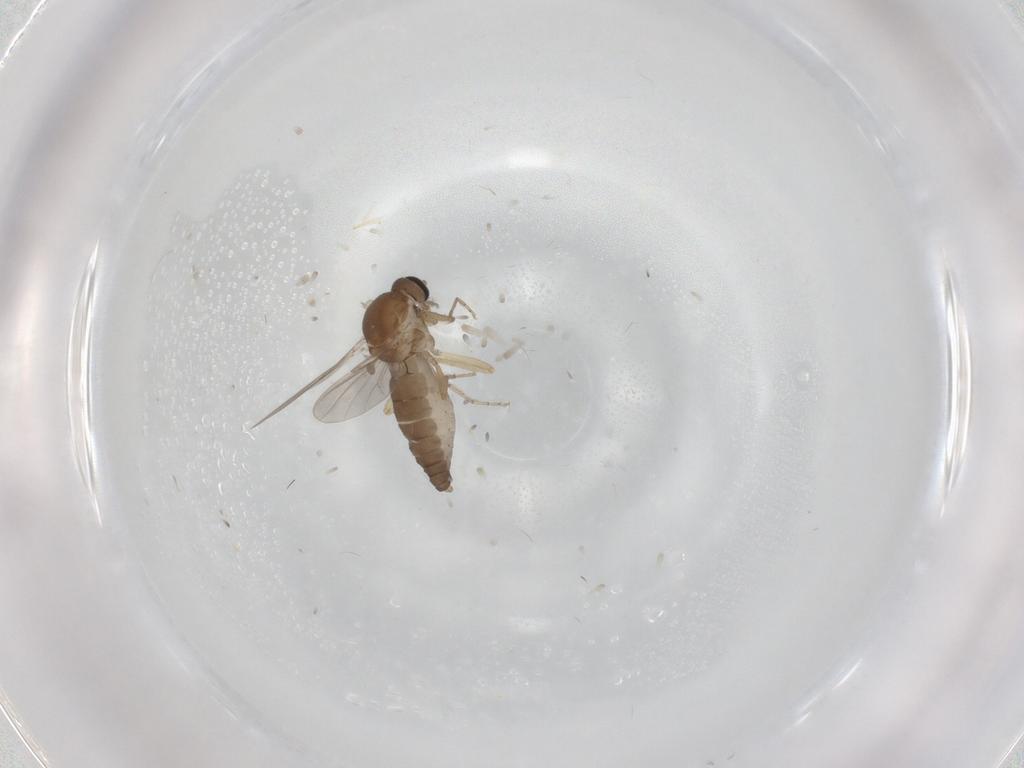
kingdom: Animalia
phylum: Arthropoda
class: Insecta
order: Diptera
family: Ceratopogonidae
